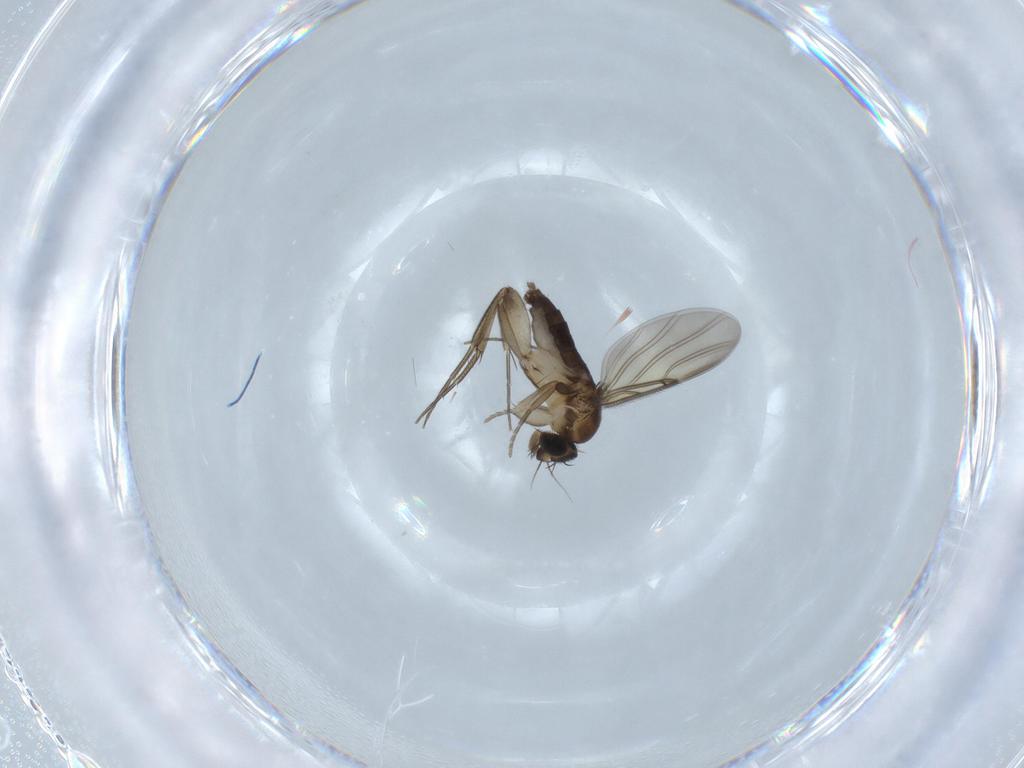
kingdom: Animalia
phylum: Arthropoda
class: Insecta
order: Diptera
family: Phoridae
